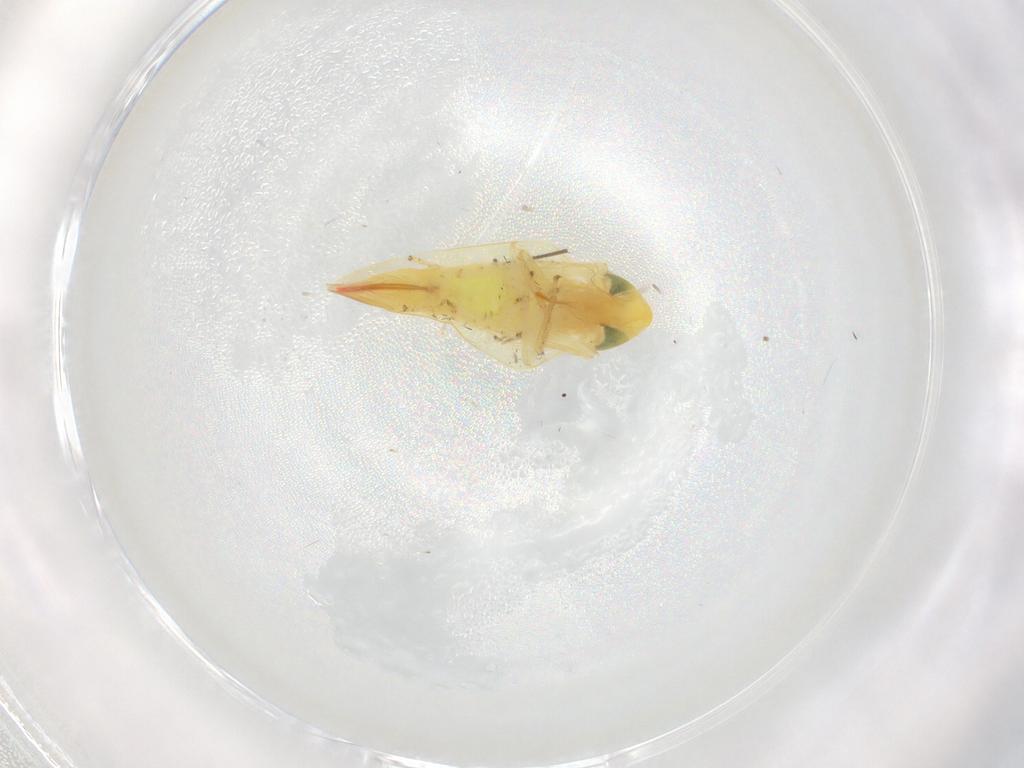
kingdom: Animalia
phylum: Arthropoda
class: Insecta
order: Hemiptera
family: Cicadellidae
